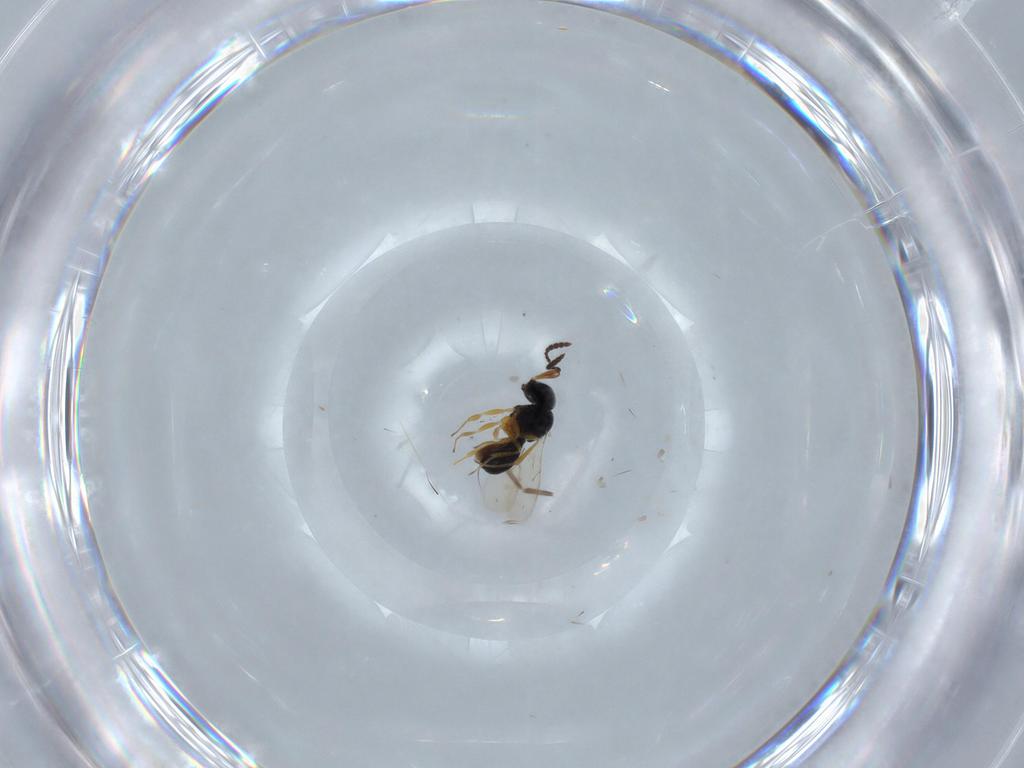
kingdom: Animalia
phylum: Arthropoda
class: Insecta
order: Hymenoptera
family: Scelionidae
